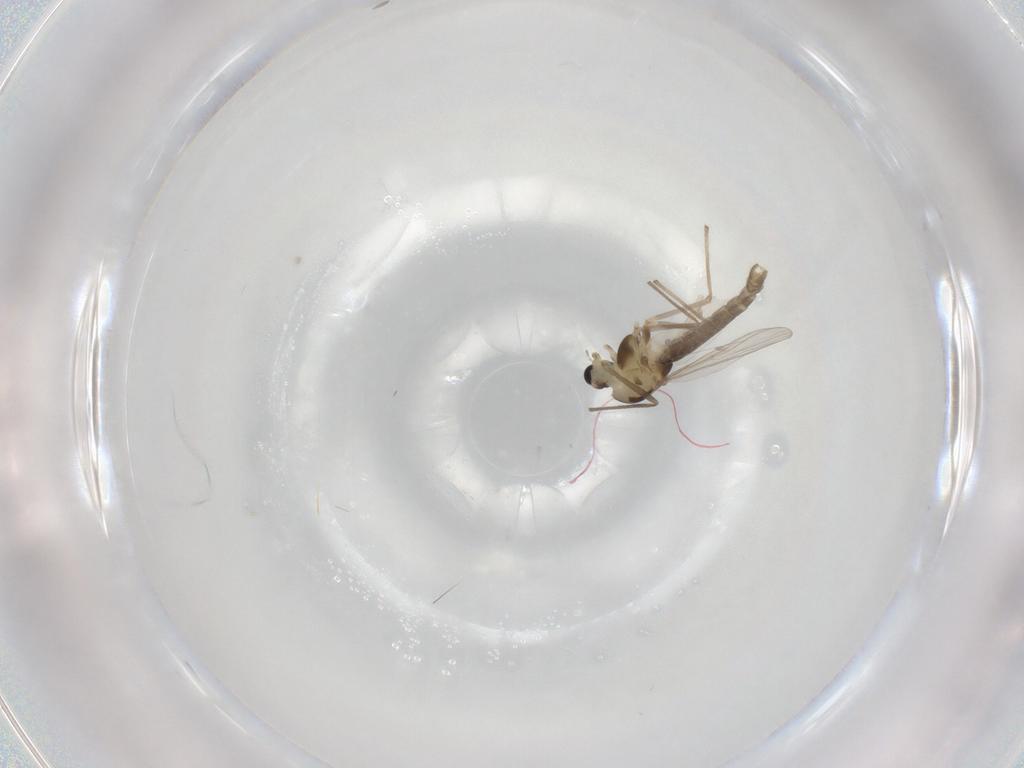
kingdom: Animalia
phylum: Arthropoda
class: Insecta
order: Diptera
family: Chironomidae
